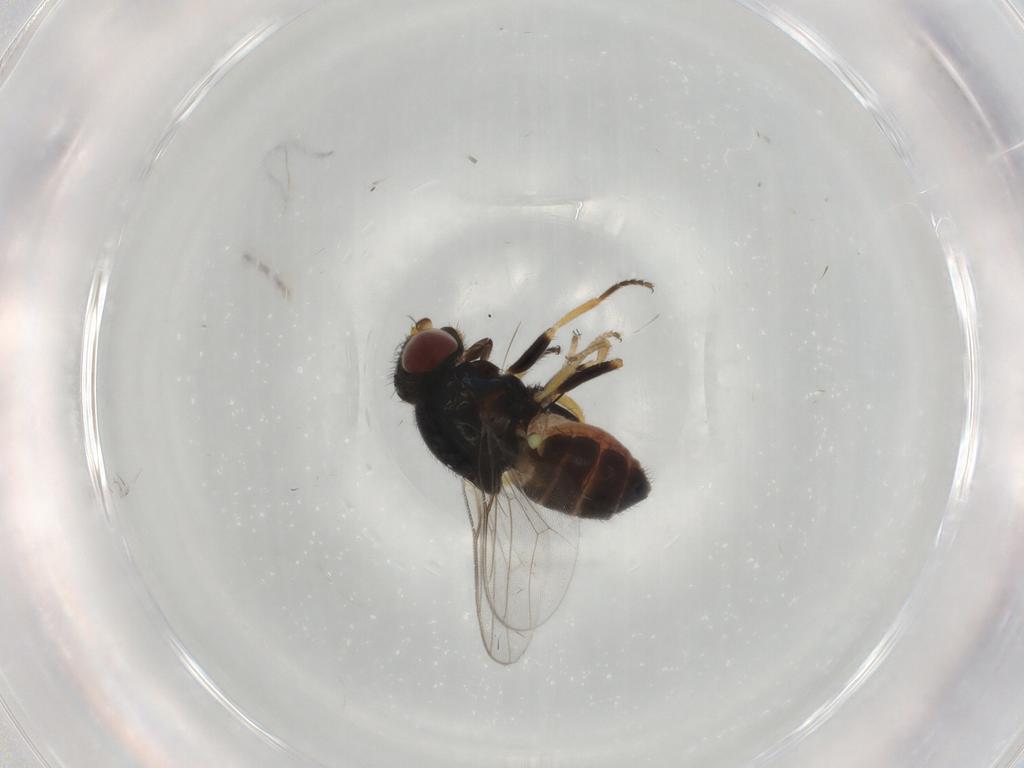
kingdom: Animalia
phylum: Arthropoda
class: Insecta
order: Diptera
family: Chloropidae
